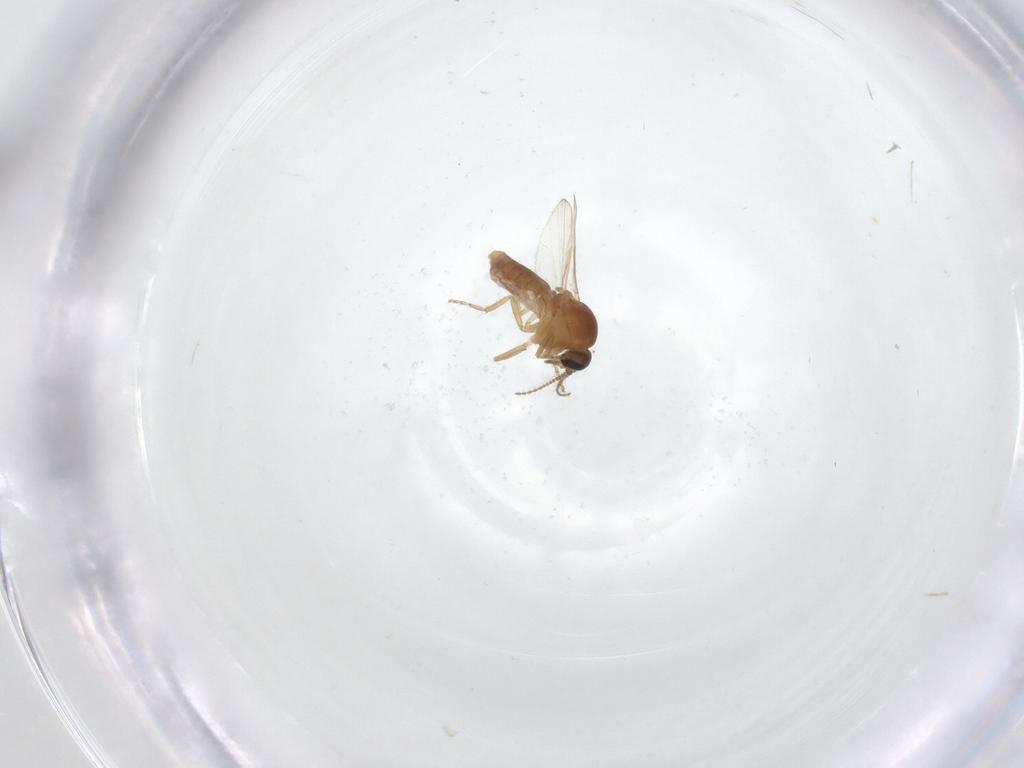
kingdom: Animalia
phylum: Arthropoda
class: Insecta
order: Diptera
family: Ceratopogonidae
